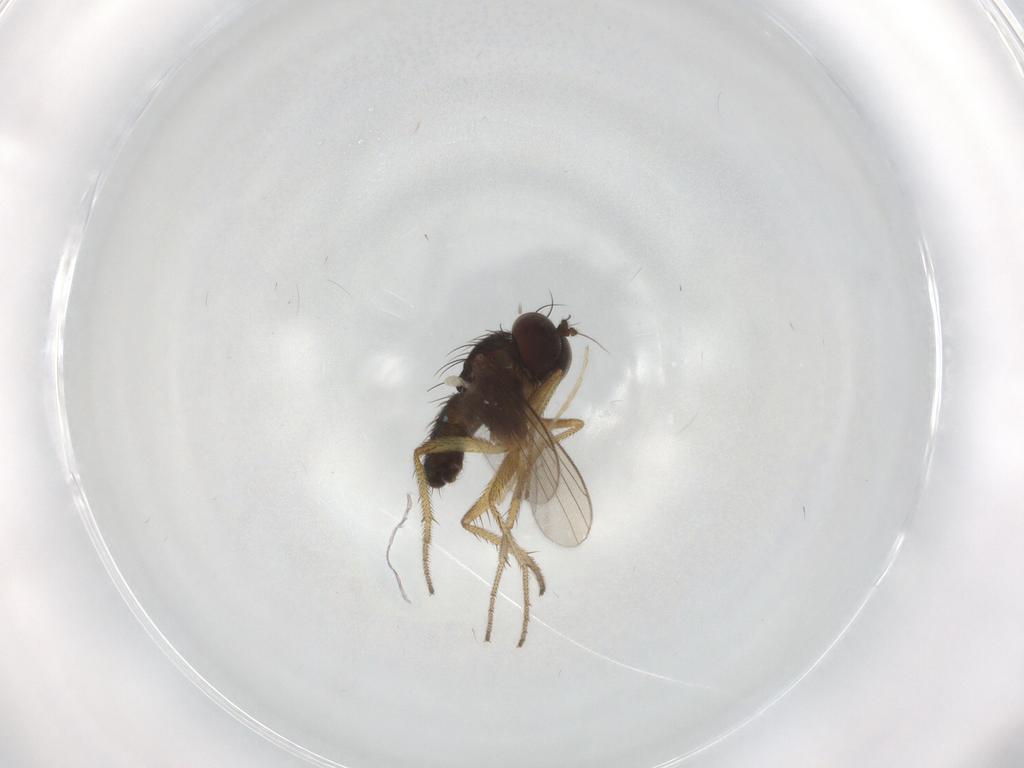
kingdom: Animalia
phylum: Arthropoda
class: Insecta
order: Diptera
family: Chironomidae
